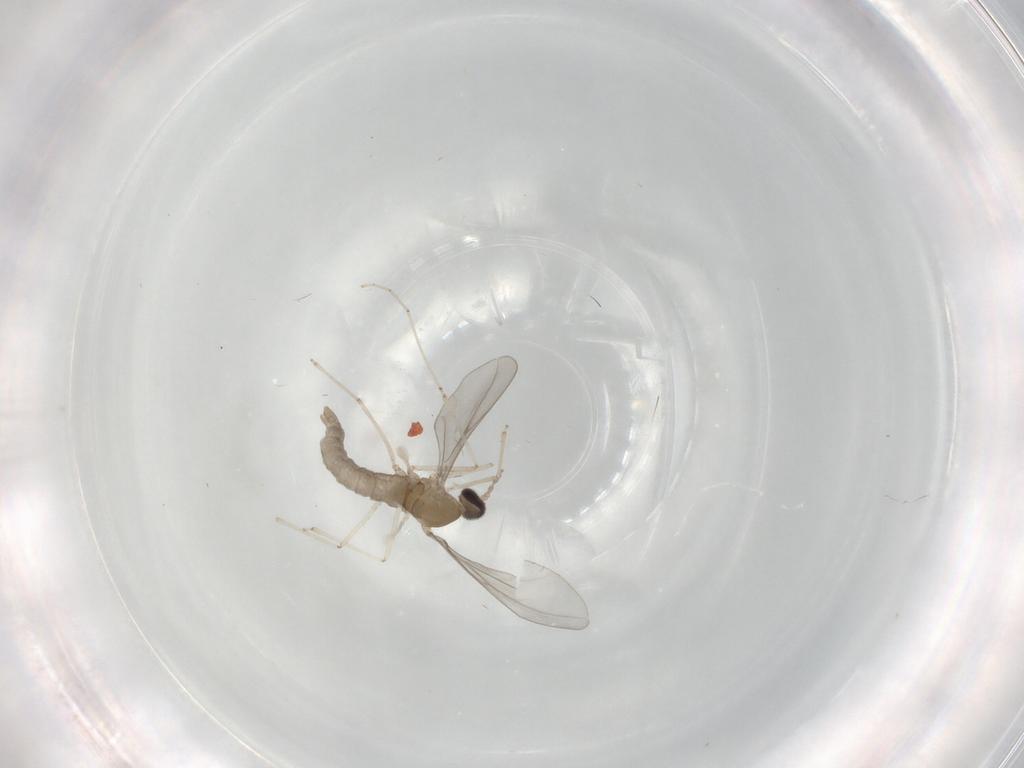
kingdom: Animalia
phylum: Arthropoda
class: Insecta
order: Diptera
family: Cecidomyiidae
